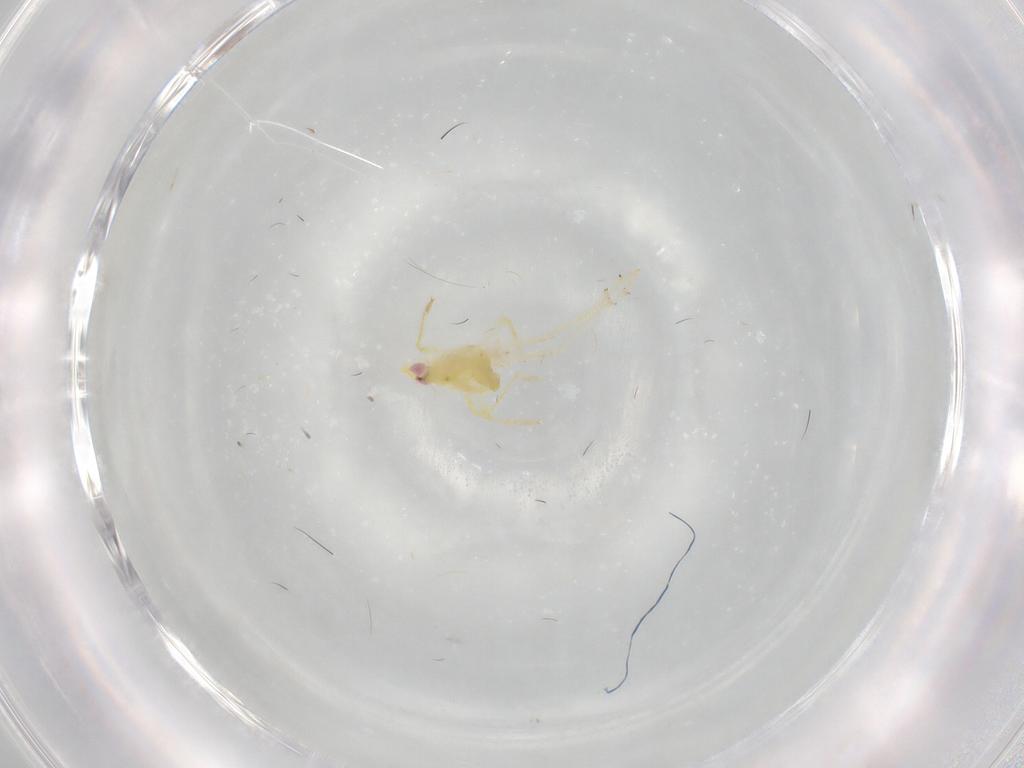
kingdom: Animalia
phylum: Arthropoda
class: Insecta
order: Hemiptera
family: Tropiduchidae
